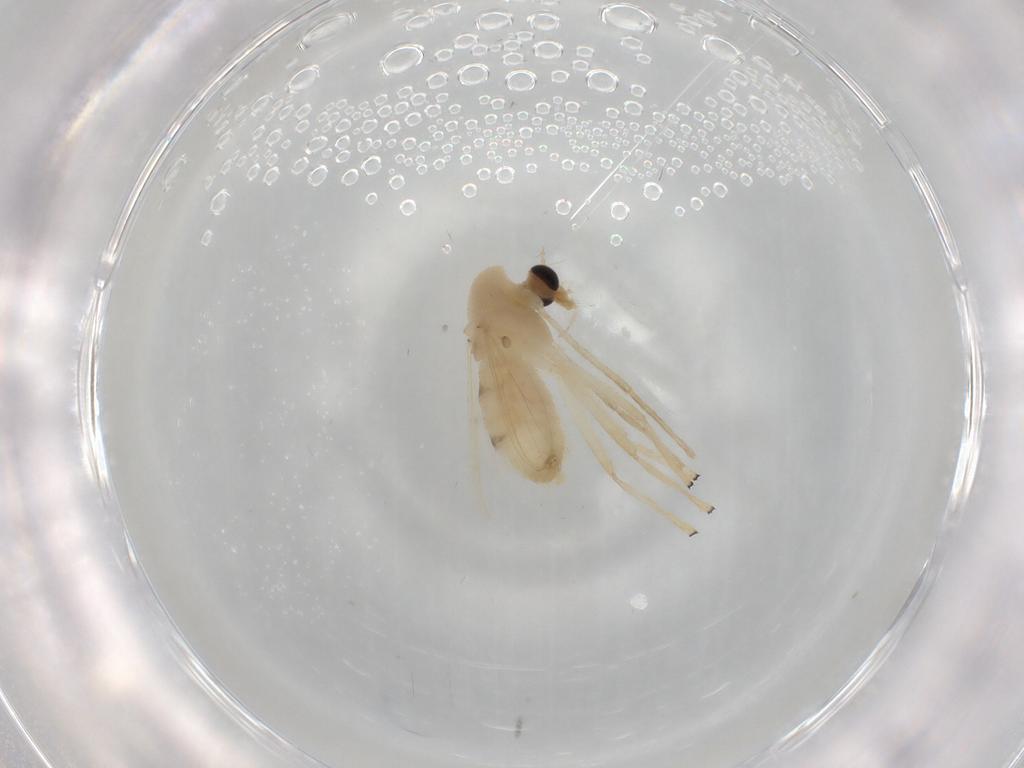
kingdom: Animalia
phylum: Arthropoda
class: Insecta
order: Diptera
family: Chironomidae
